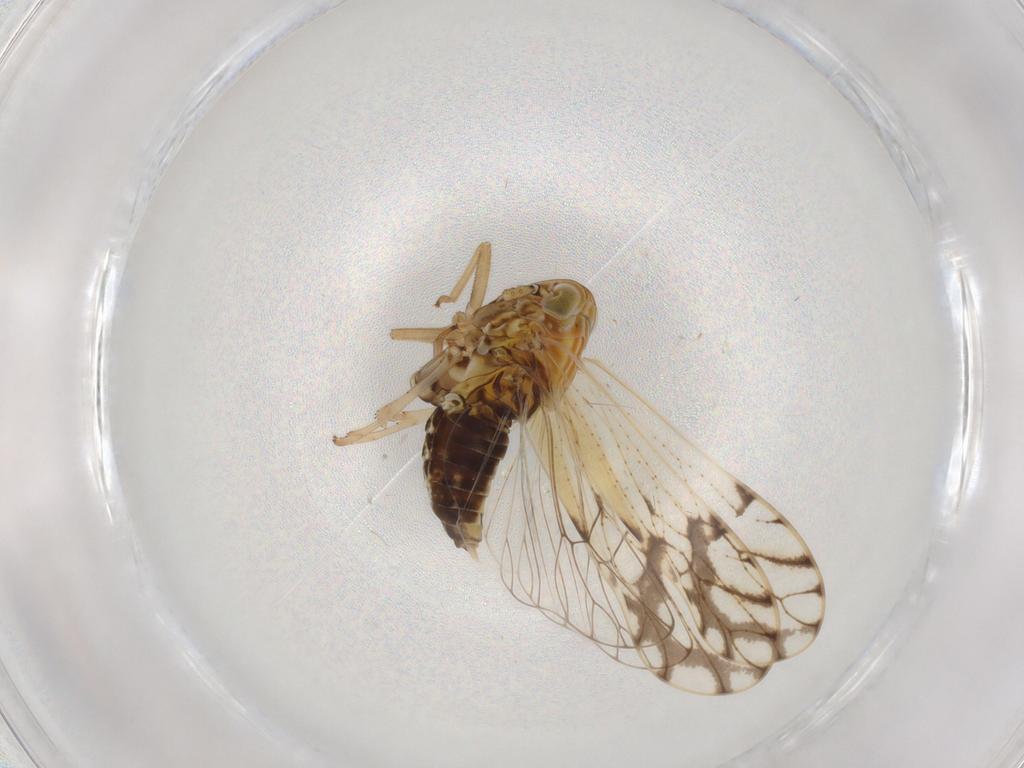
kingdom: Animalia
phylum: Arthropoda
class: Insecta
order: Hemiptera
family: Delphacidae
